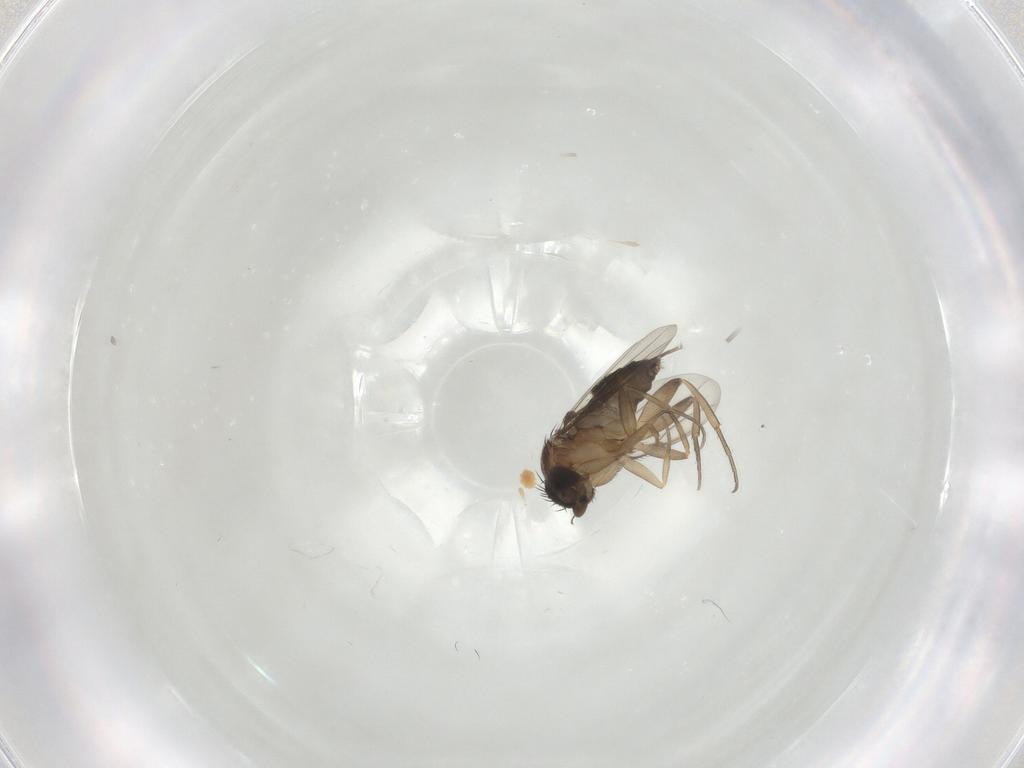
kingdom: Animalia
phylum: Arthropoda
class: Insecta
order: Diptera
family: Phoridae
